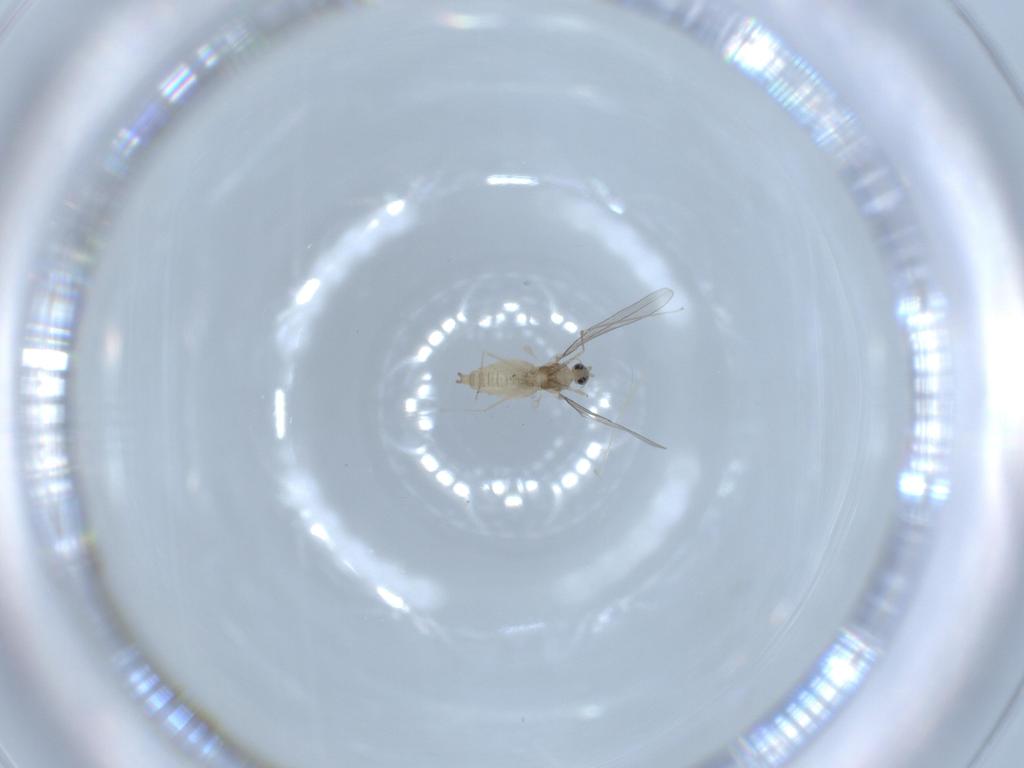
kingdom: Animalia
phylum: Arthropoda
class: Insecta
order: Diptera
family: Cecidomyiidae
